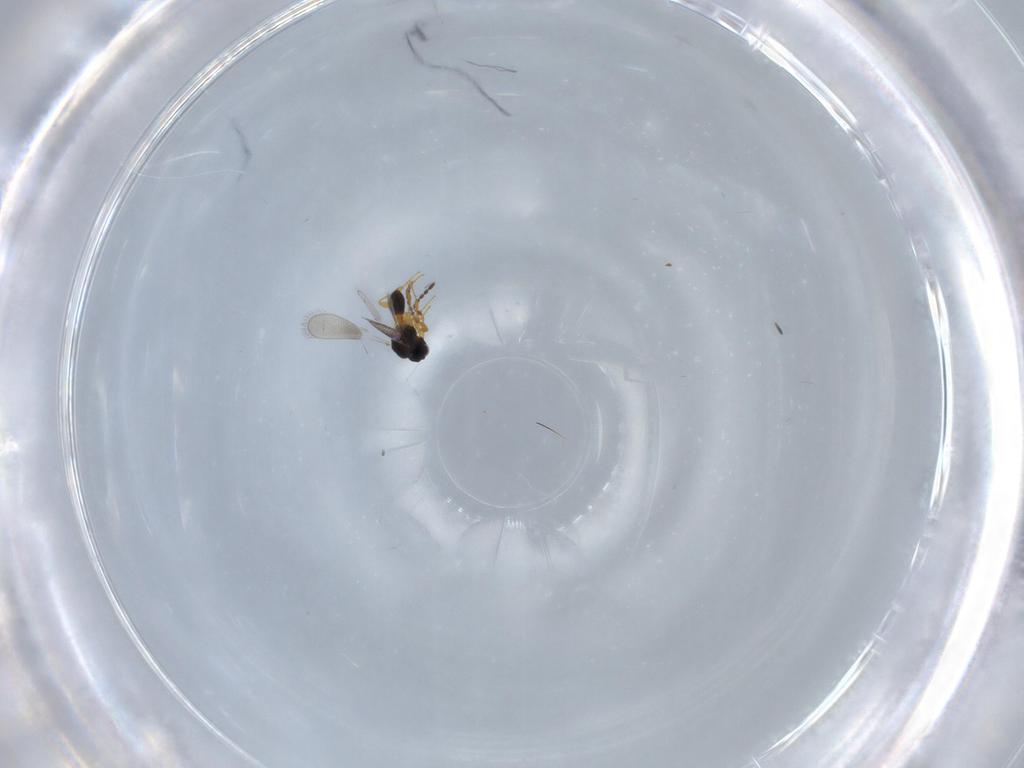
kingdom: Animalia
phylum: Arthropoda
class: Insecta
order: Hymenoptera
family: Platygastridae
